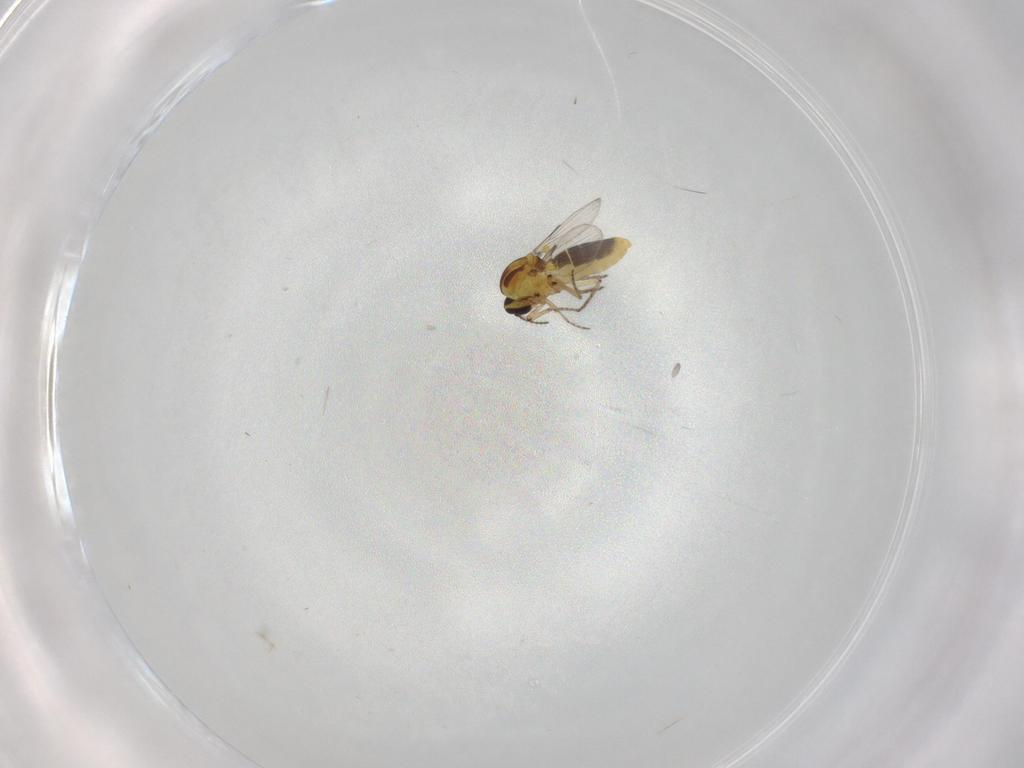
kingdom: Animalia
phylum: Arthropoda
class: Insecta
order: Diptera
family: Ceratopogonidae
